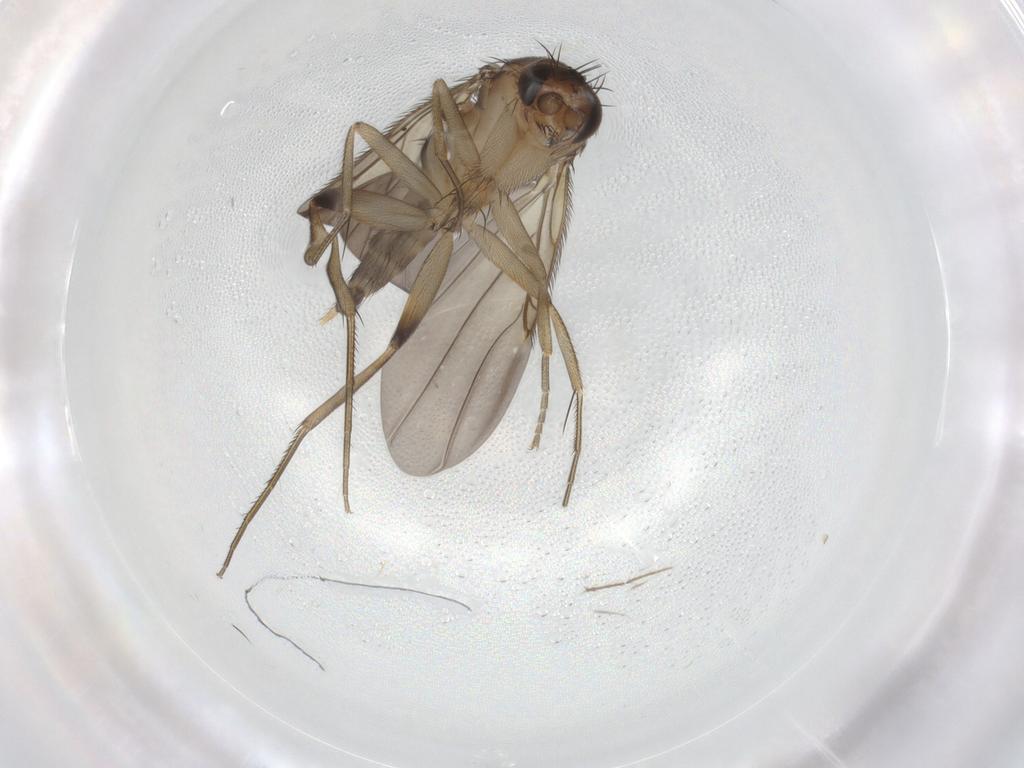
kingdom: Animalia
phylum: Arthropoda
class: Insecta
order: Diptera
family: Phoridae
